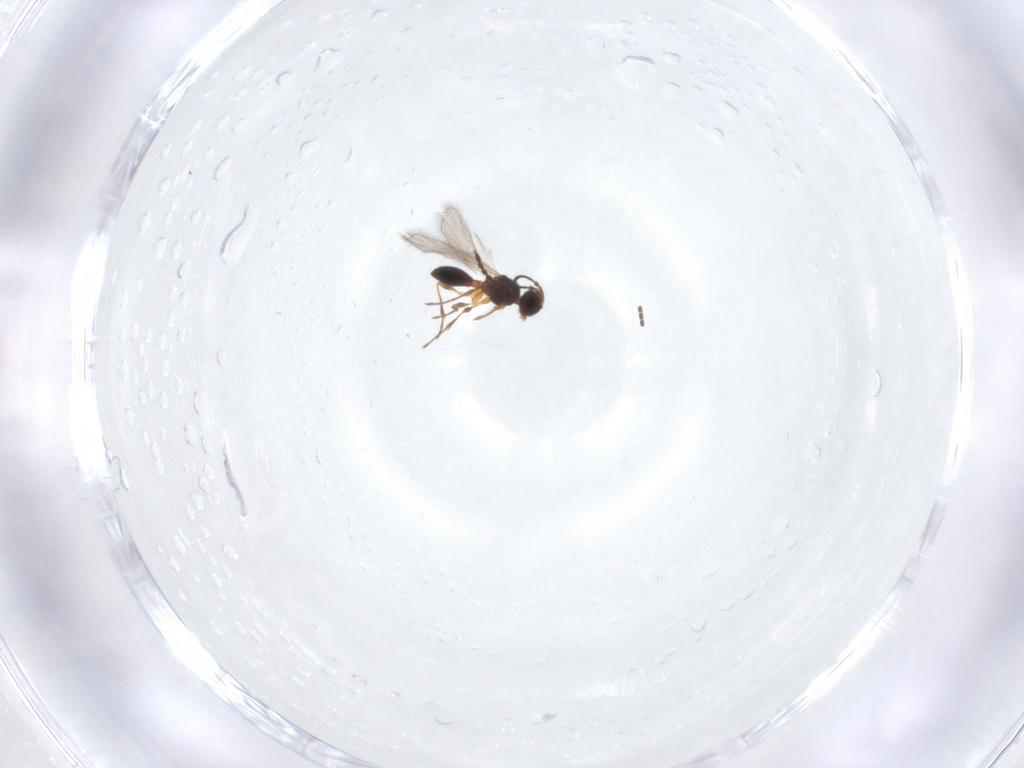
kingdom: Animalia
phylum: Arthropoda
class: Insecta
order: Hymenoptera
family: Diapriidae
